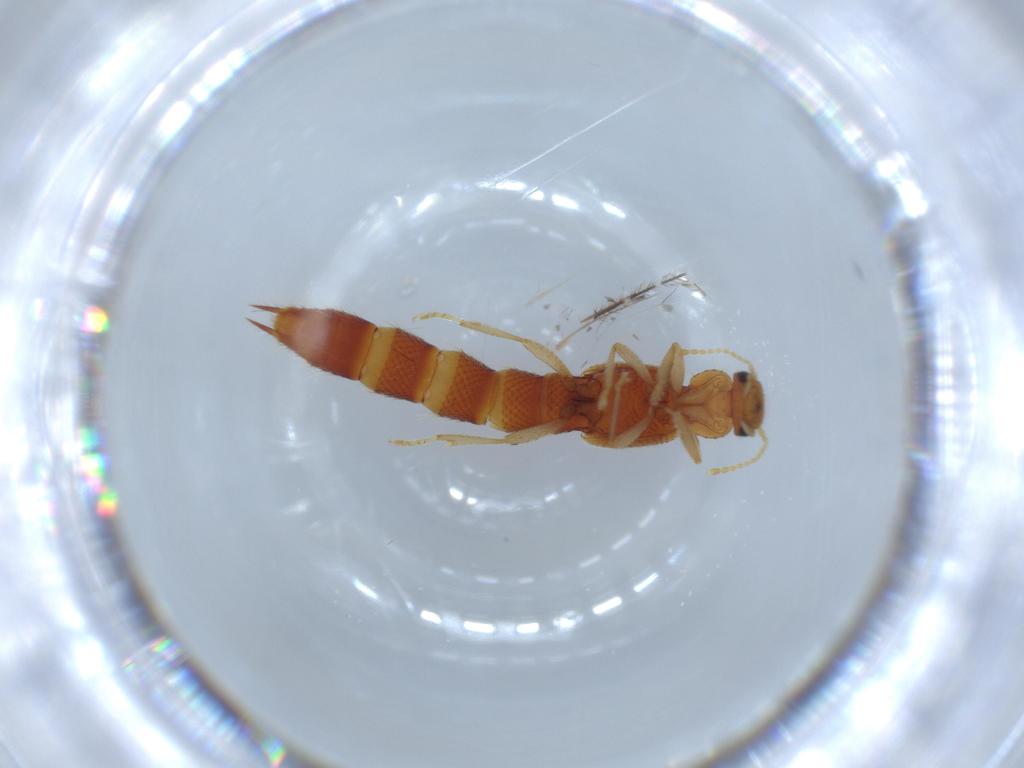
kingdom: Animalia
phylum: Arthropoda
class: Insecta
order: Coleoptera
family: Staphylinidae
